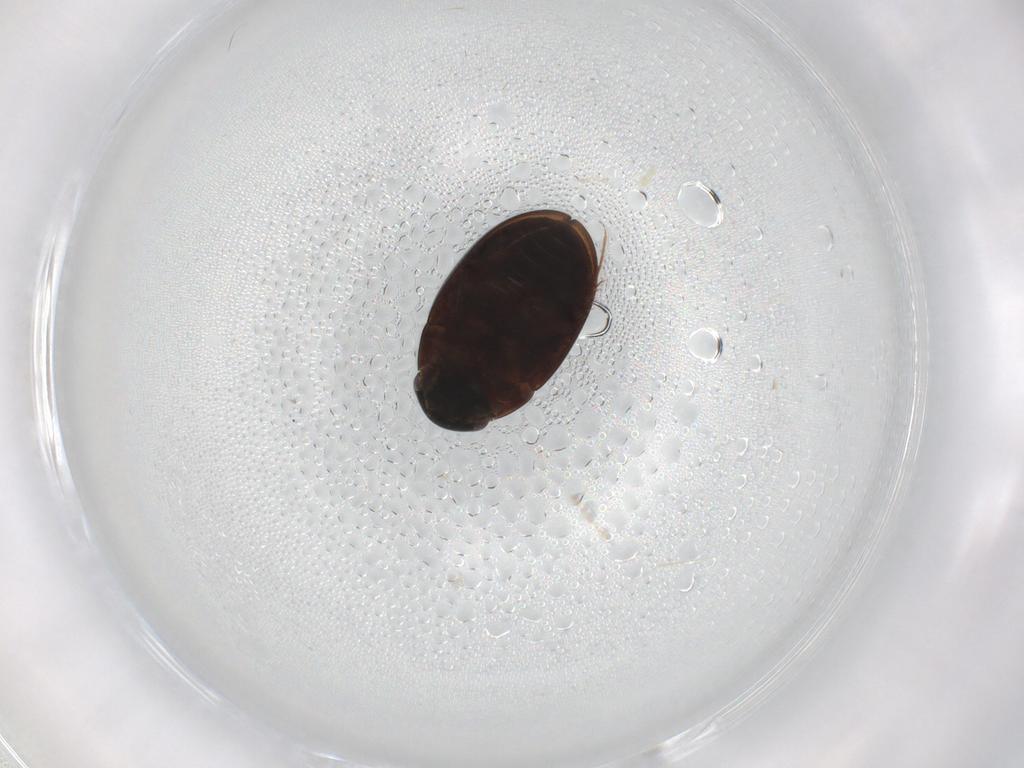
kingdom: Animalia
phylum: Arthropoda
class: Insecta
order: Coleoptera
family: Hydrophilidae
